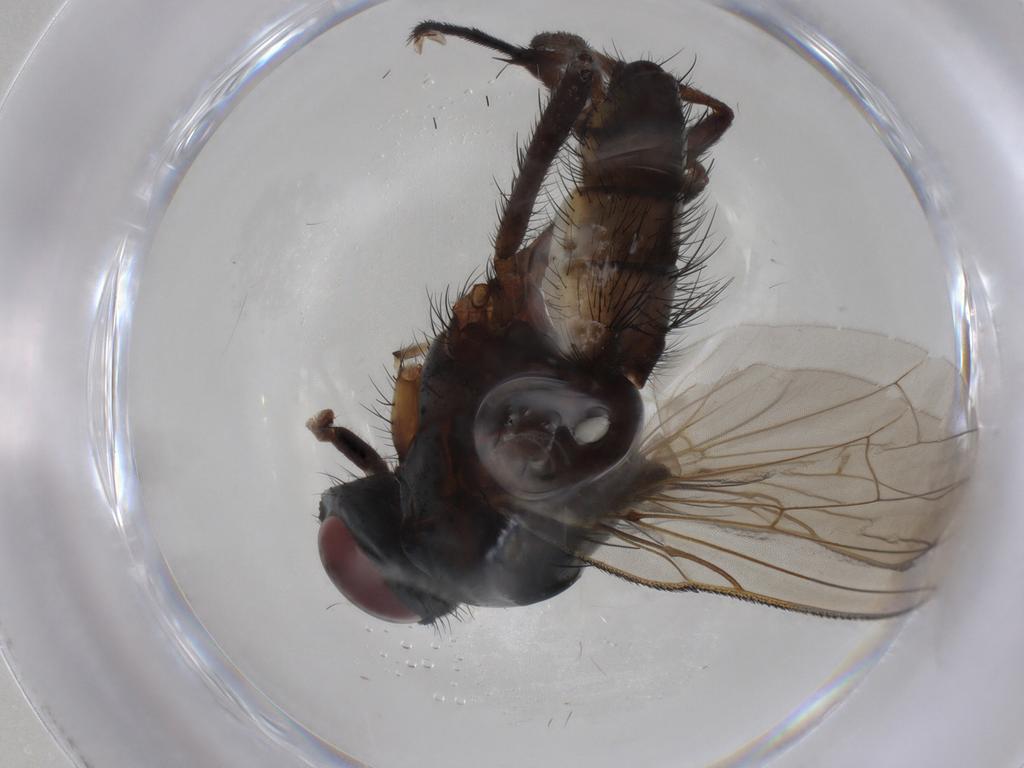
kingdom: Animalia
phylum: Arthropoda
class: Insecta
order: Diptera
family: Anthomyiidae
